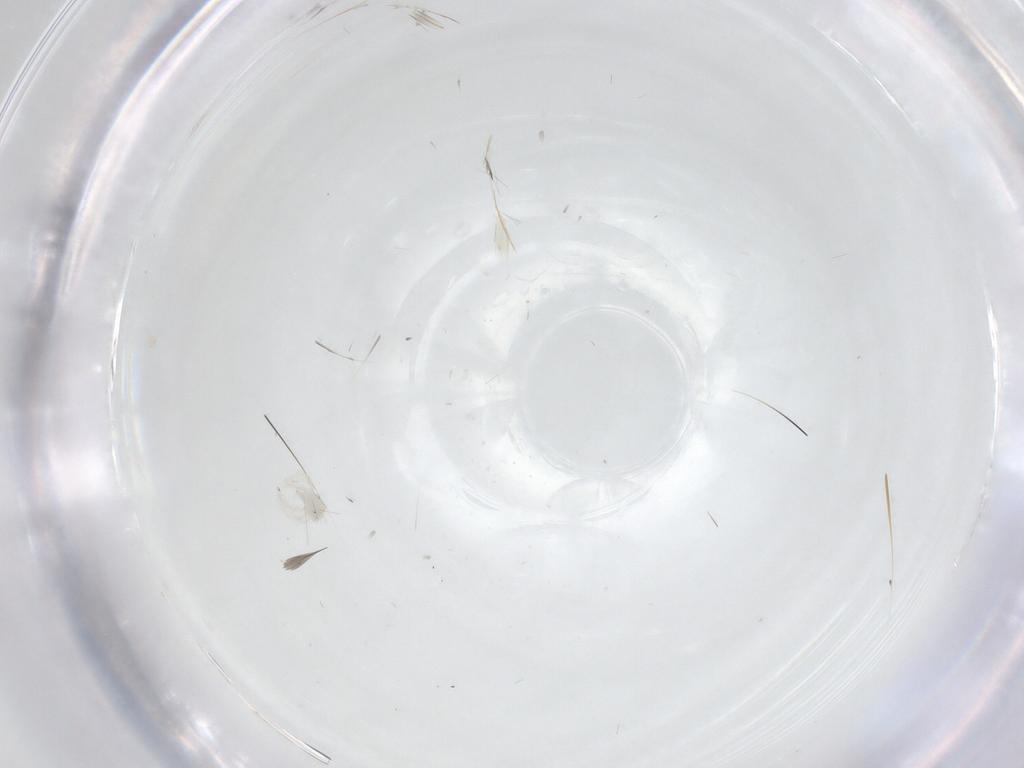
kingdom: Animalia
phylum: Arthropoda
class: Arachnida
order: Trombidiformes
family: Anystidae
